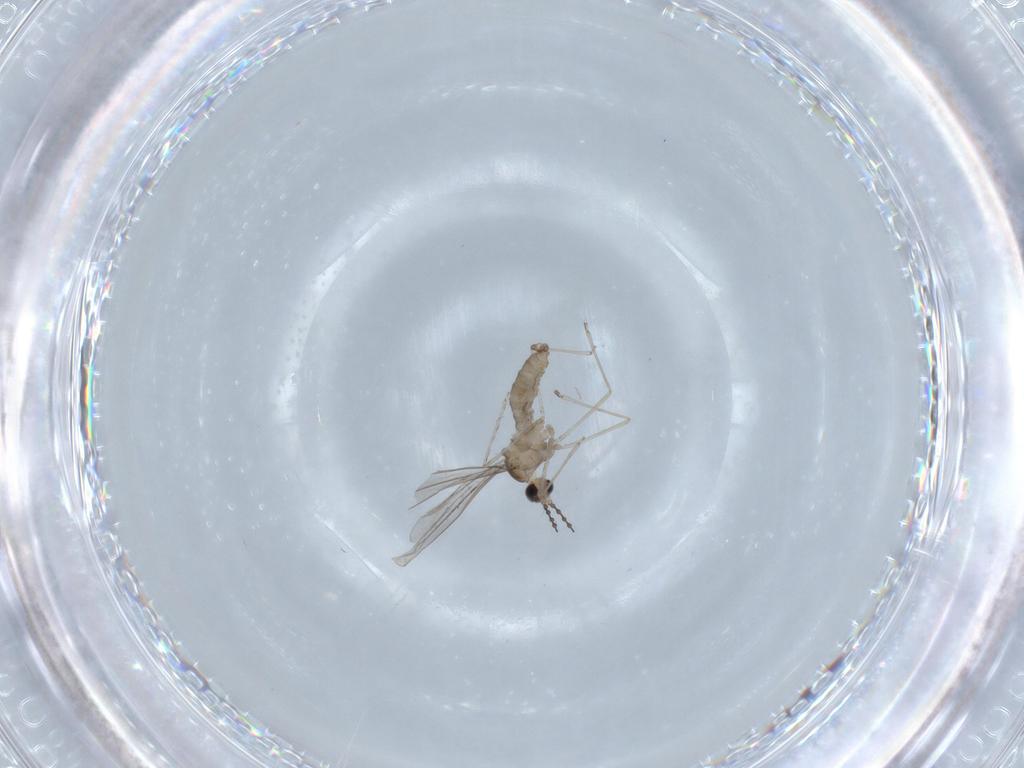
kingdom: Animalia
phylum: Arthropoda
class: Insecta
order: Diptera
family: Cecidomyiidae
